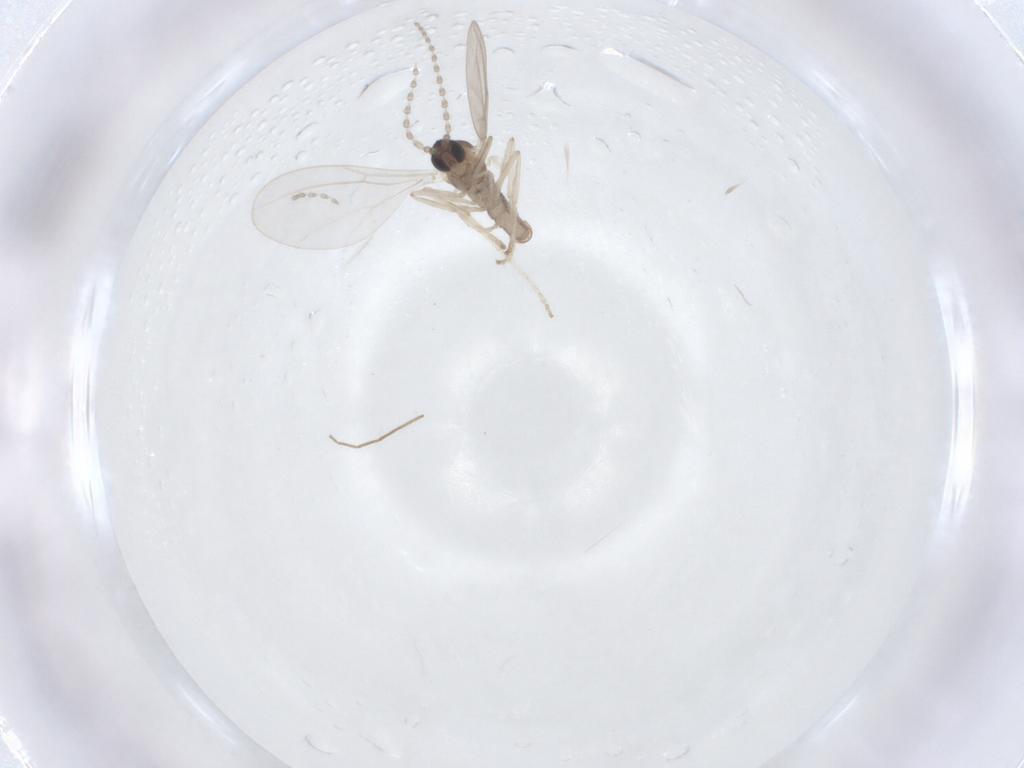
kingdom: Animalia
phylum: Arthropoda
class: Insecta
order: Diptera
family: Cecidomyiidae
